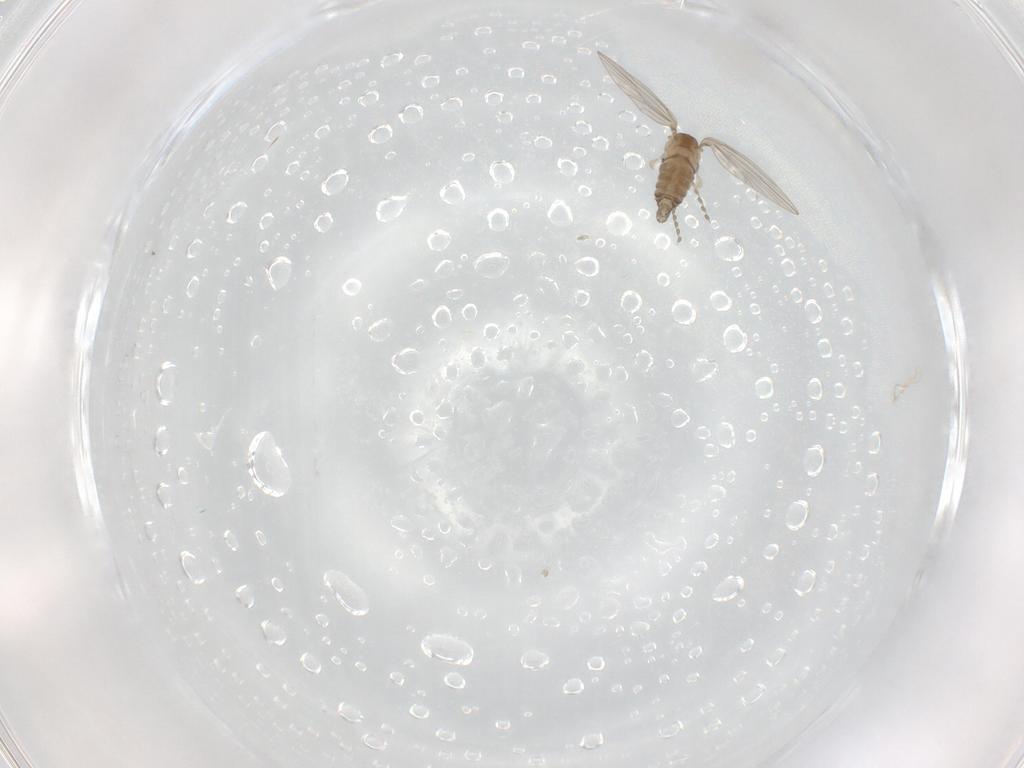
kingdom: Animalia
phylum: Arthropoda
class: Insecta
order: Diptera
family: Psychodidae
